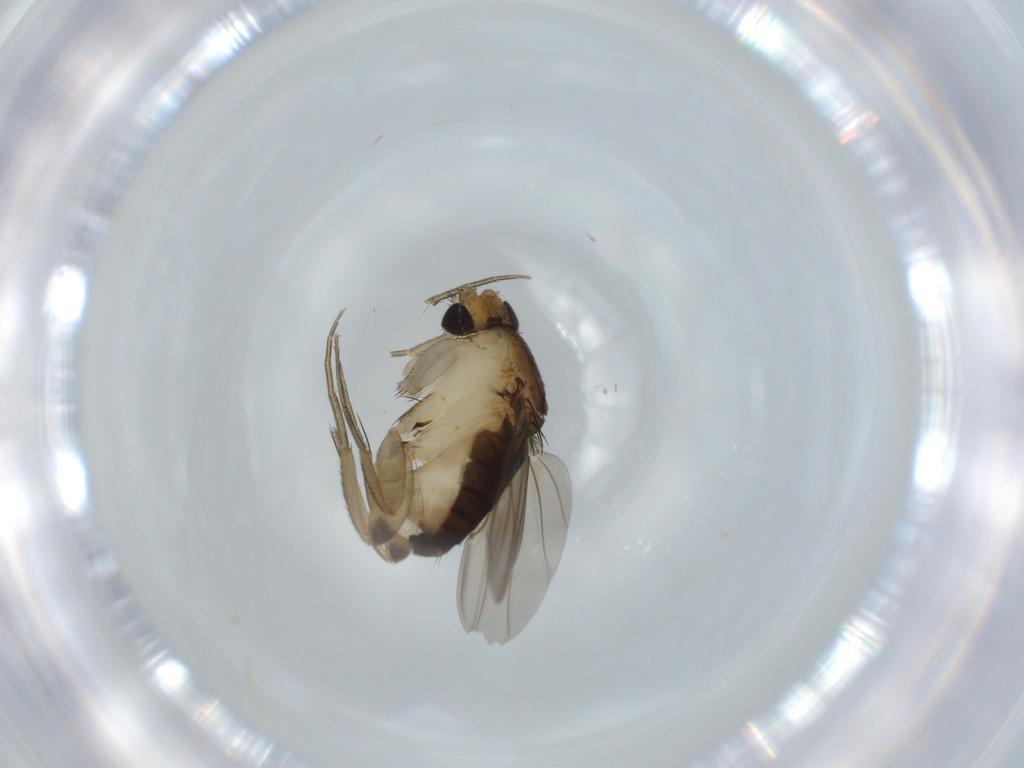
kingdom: Animalia
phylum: Arthropoda
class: Insecta
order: Diptera
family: Phoridae
